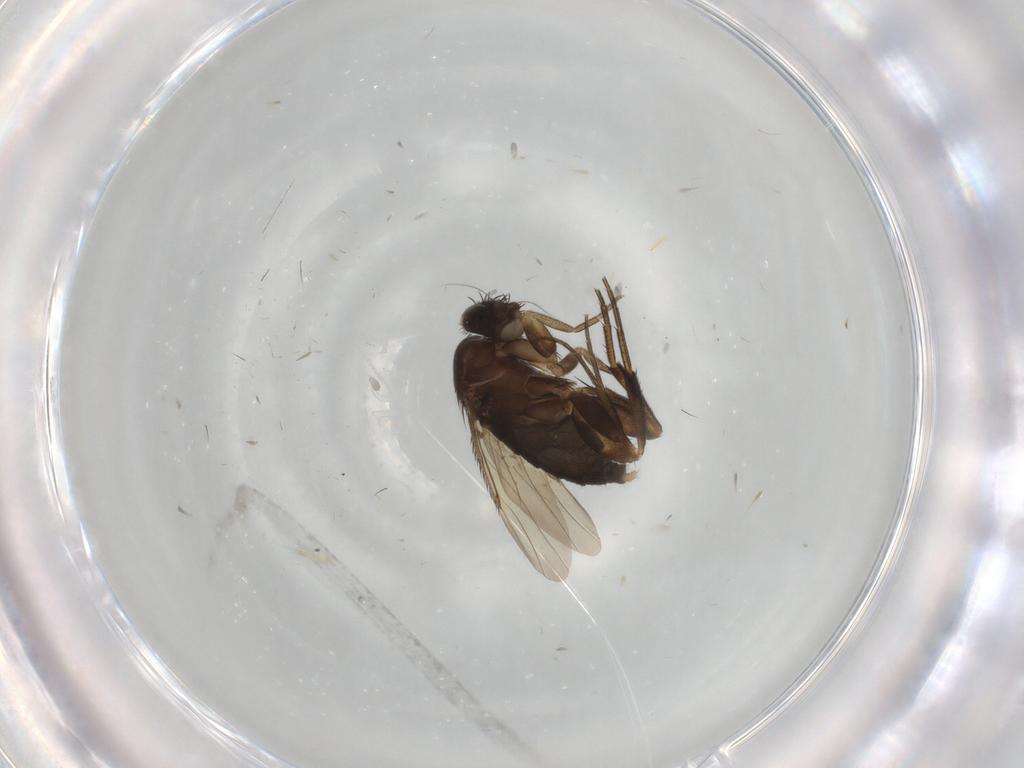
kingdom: Animalia
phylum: Arthropoda
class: Insecta
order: Diptera
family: Phoridae
